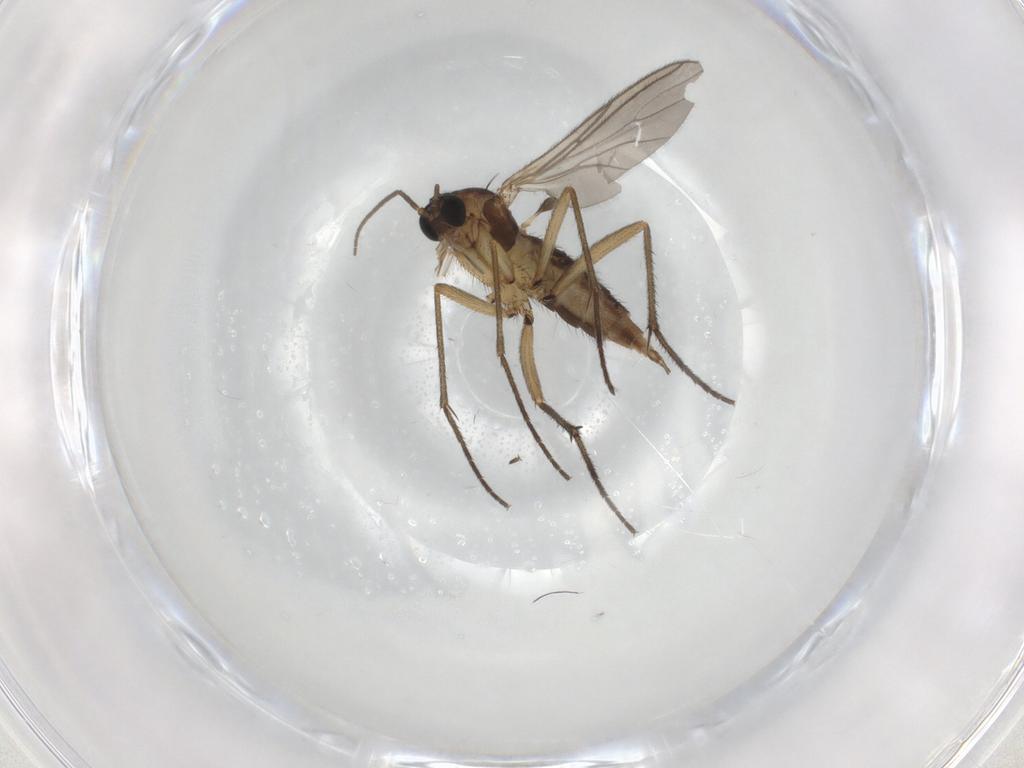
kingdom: Animalia
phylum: Arthropoda
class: Insecta
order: Diptera
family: Sciaridae
